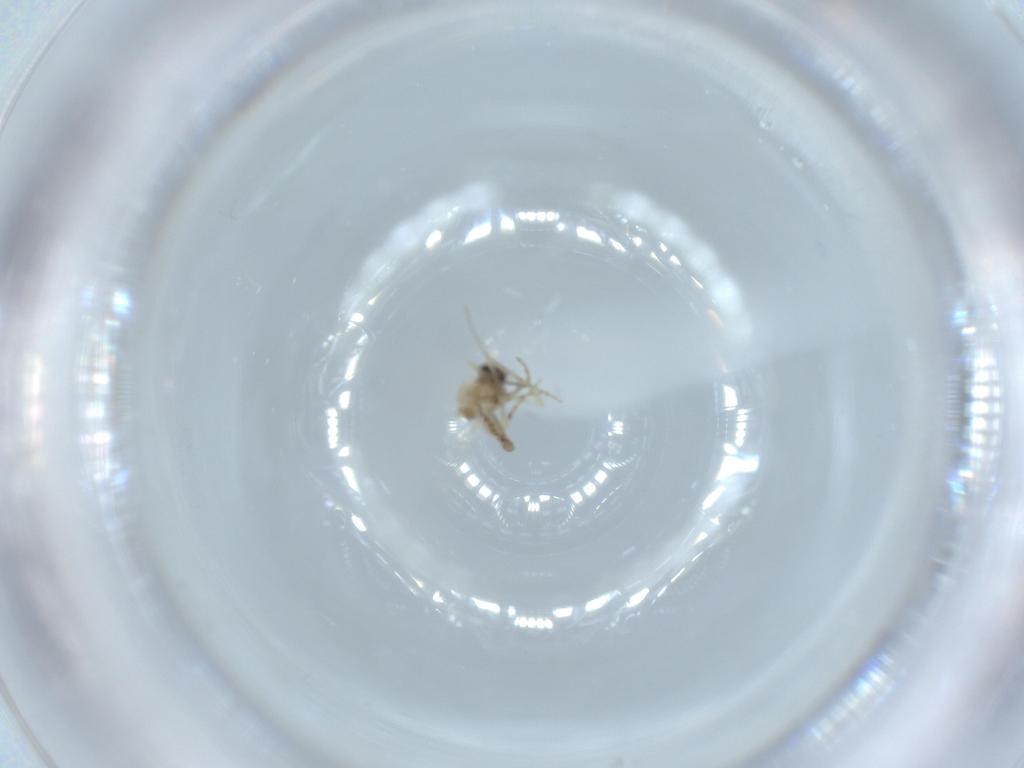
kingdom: Animalia
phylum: Arthropoda
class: Insecta
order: Diptera
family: Ceratopogonidae
